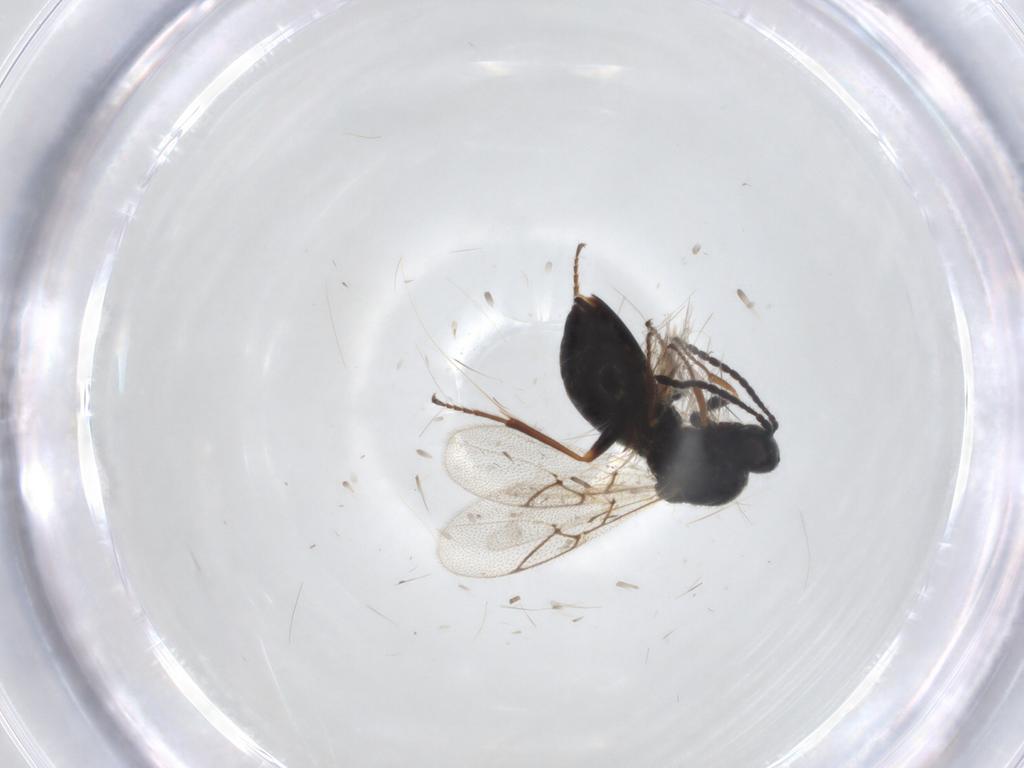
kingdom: Animalia
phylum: Arthropoda
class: Insecta
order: Hymenoptera
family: Figitidae
